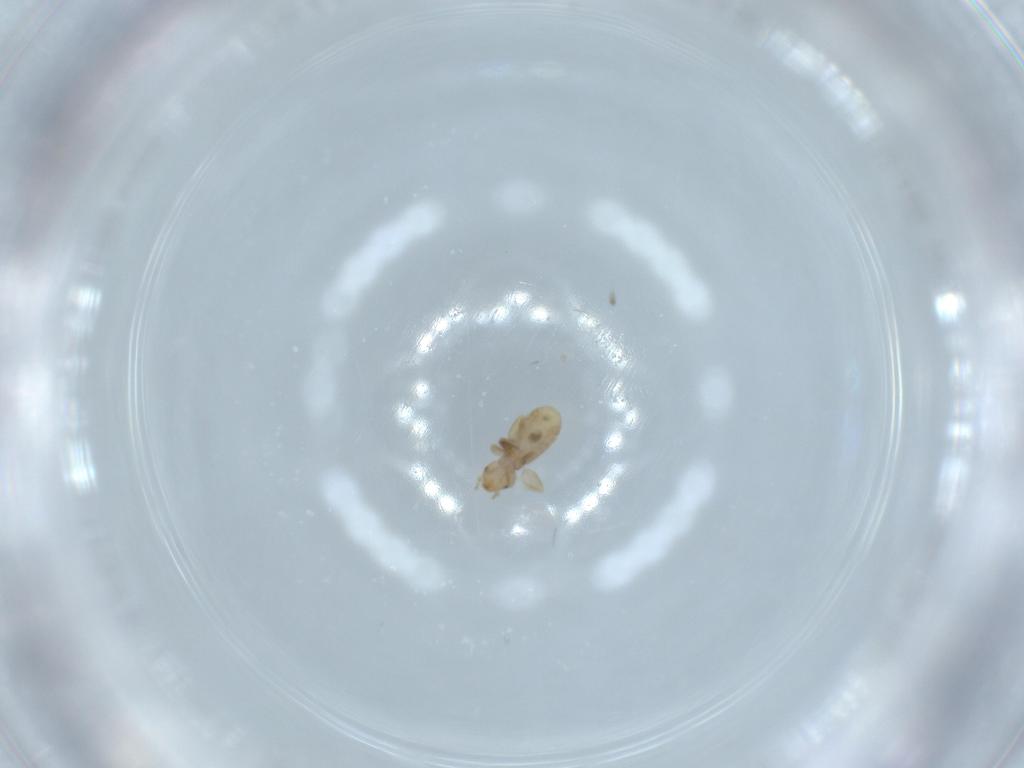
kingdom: Animalia
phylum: Arthropoda
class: Insecta
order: Psocodea
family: Liposcelididae
